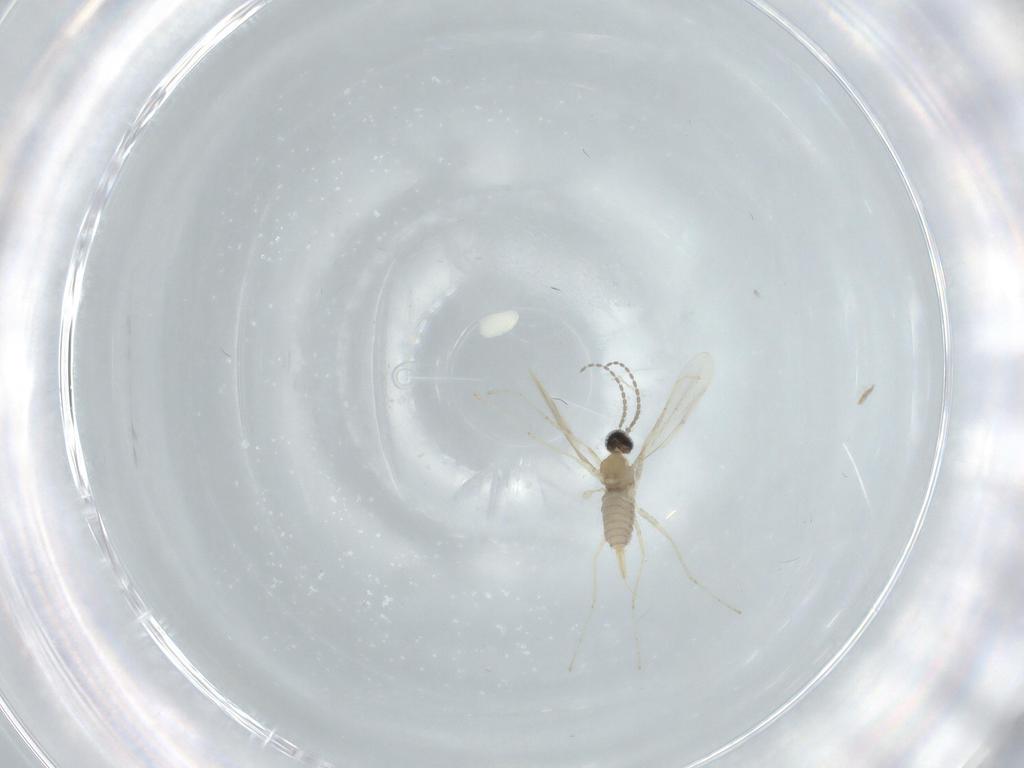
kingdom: Animalia
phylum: Arthropoda
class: Insecta
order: Diptera
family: Cecidomyiidae
